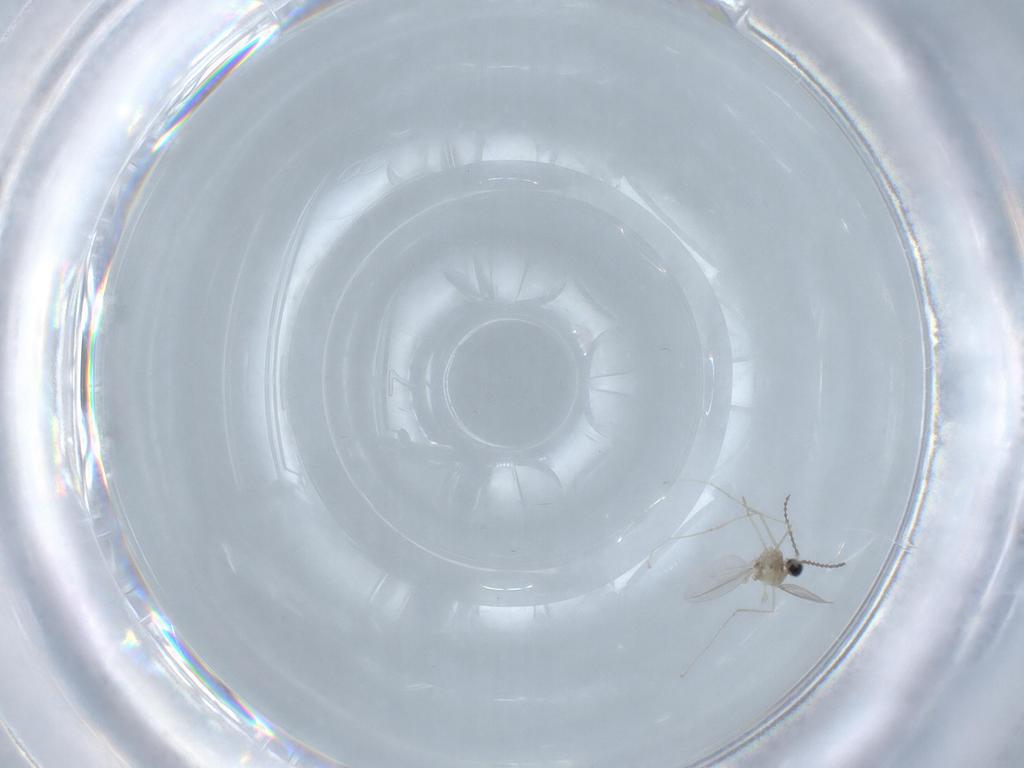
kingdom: Animalia
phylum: Arthropoda
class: Insecta
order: Diptera
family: Cecidomyiidae
